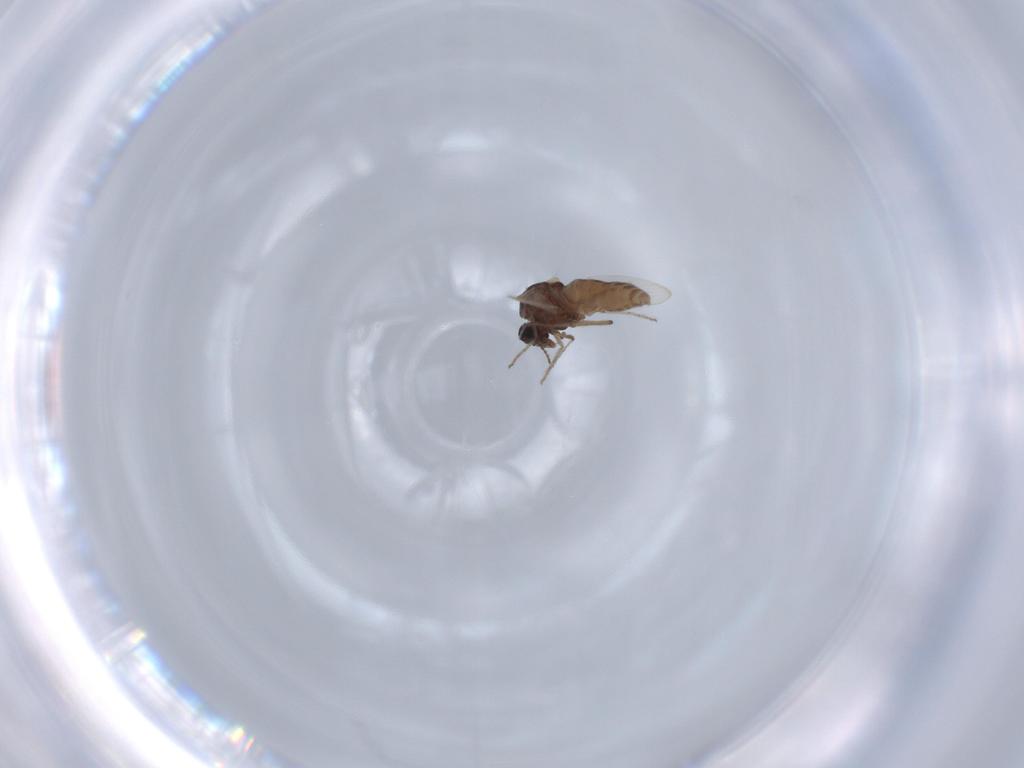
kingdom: Animalia
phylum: Arthropoda
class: Insecta
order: Diptera
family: Ceratopogonidae
